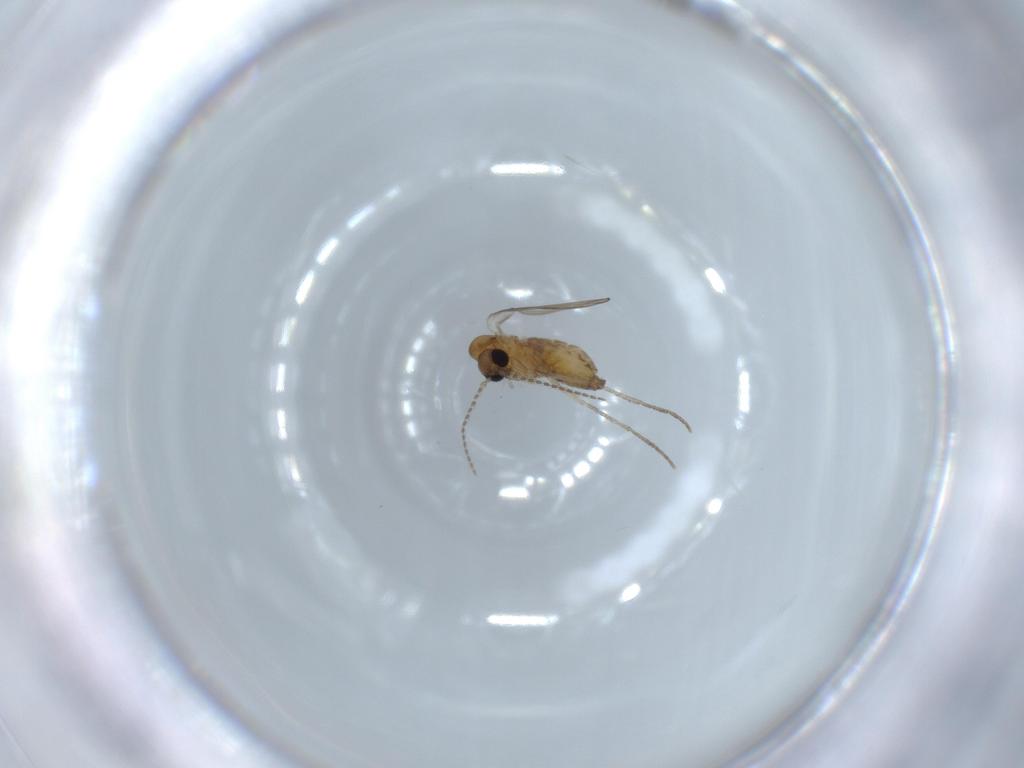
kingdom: Animalia
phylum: Arthropoda
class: Insecta
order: Diptera
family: Psychodidae
